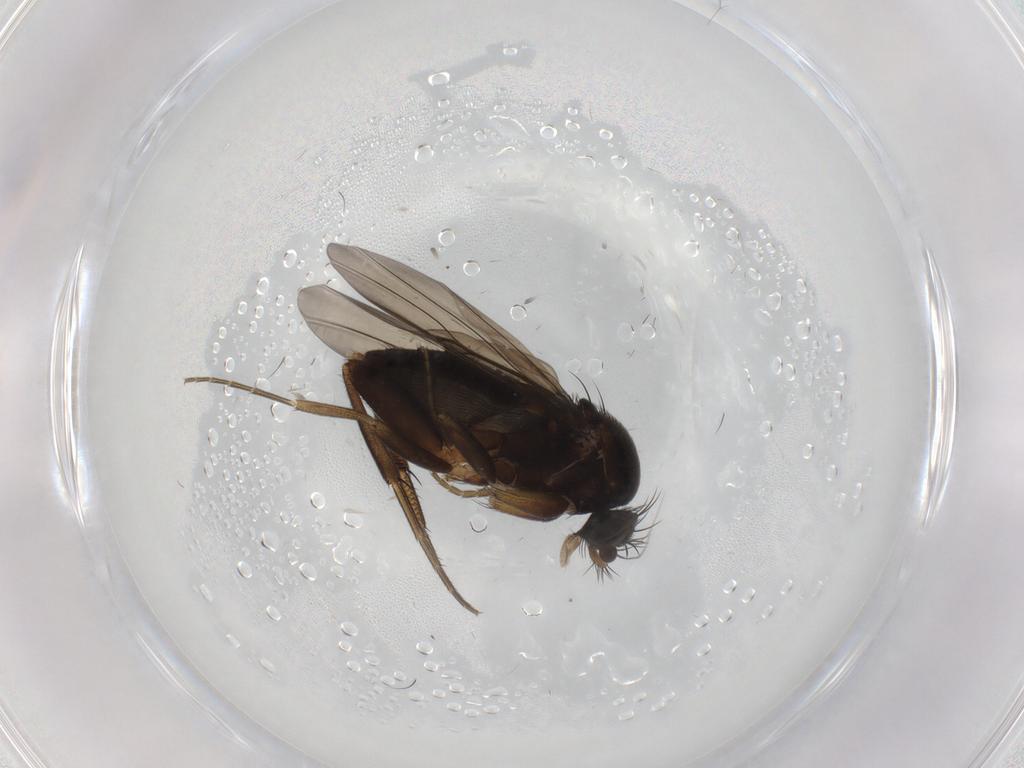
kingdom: Animalia
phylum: Arthropoda
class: Insecta
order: Diptera
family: Phoridae
